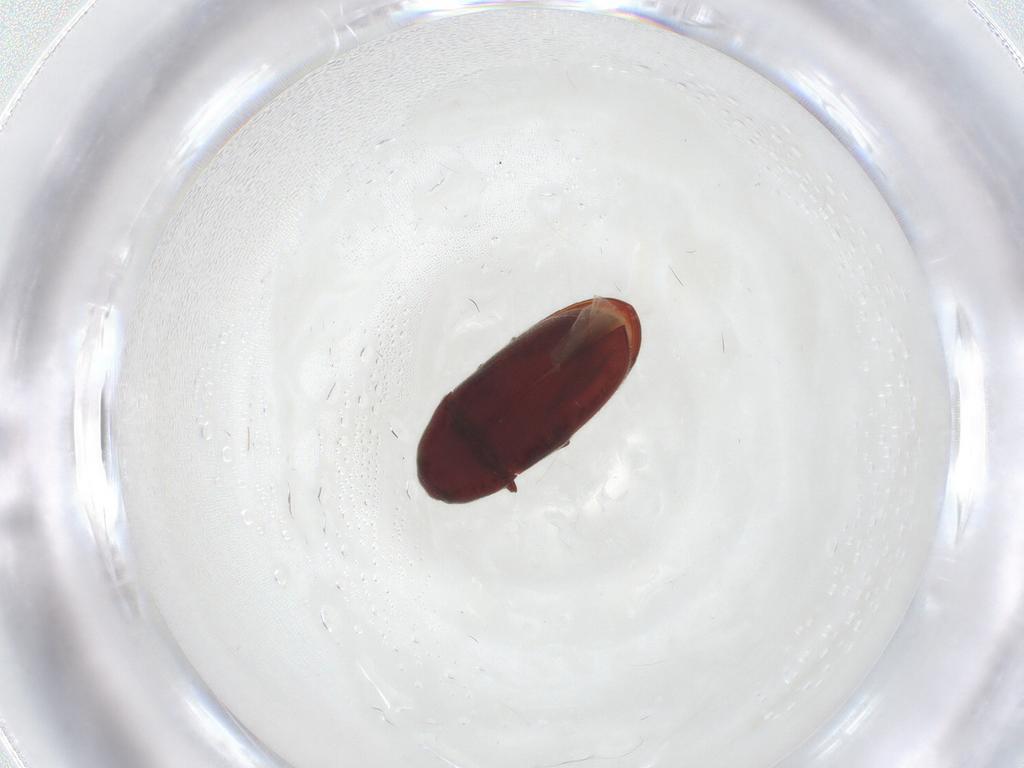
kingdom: Animalia
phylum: Arthropoda
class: Insecta
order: Coleoptera
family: Throscidae
